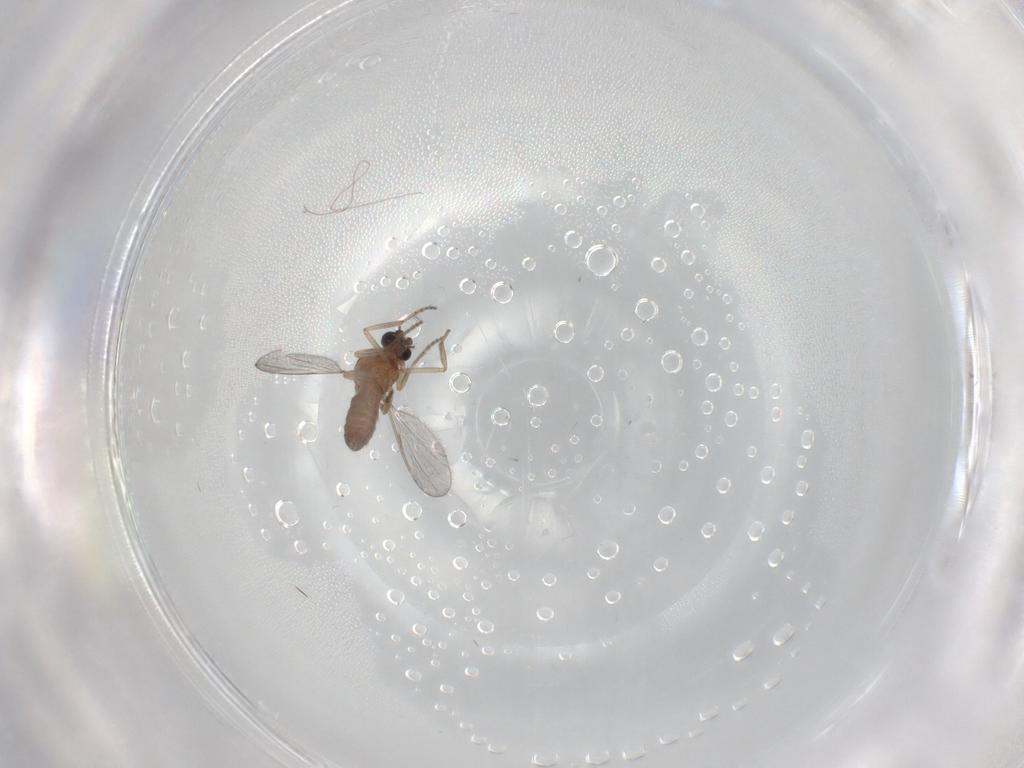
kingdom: Animalia
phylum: Arthropoda
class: Insecta
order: Diptera
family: Ceratopogonidae
